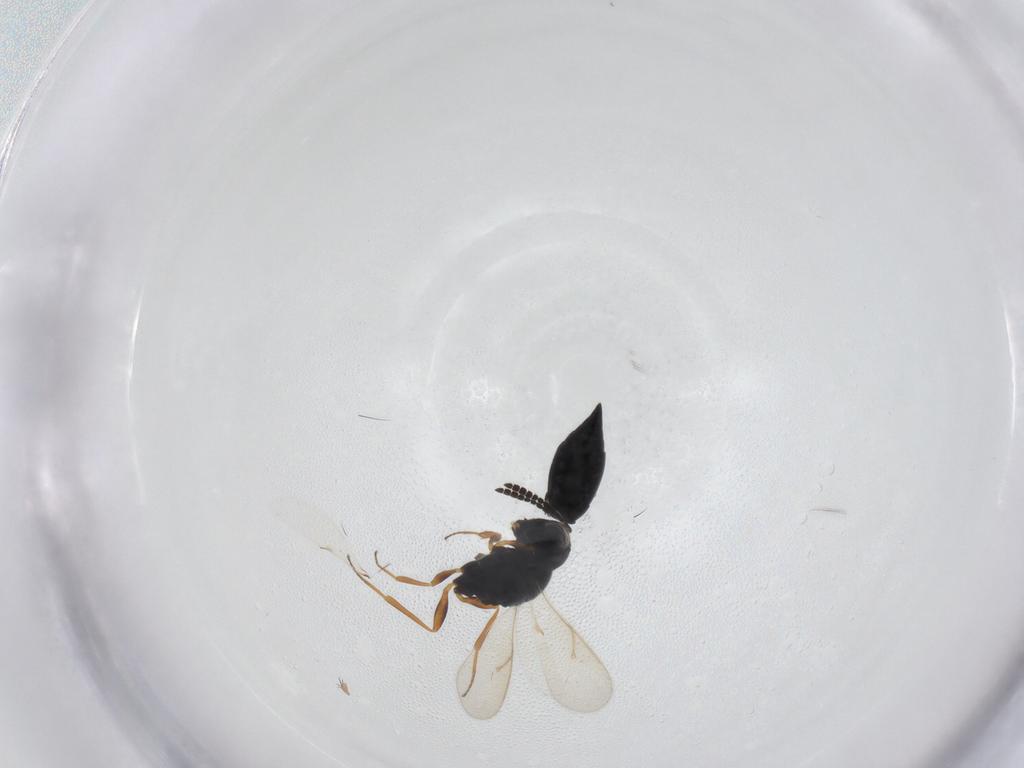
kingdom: Animalia
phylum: Arthropoda
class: Insecta
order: Hymenoptera
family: Scelionidae
